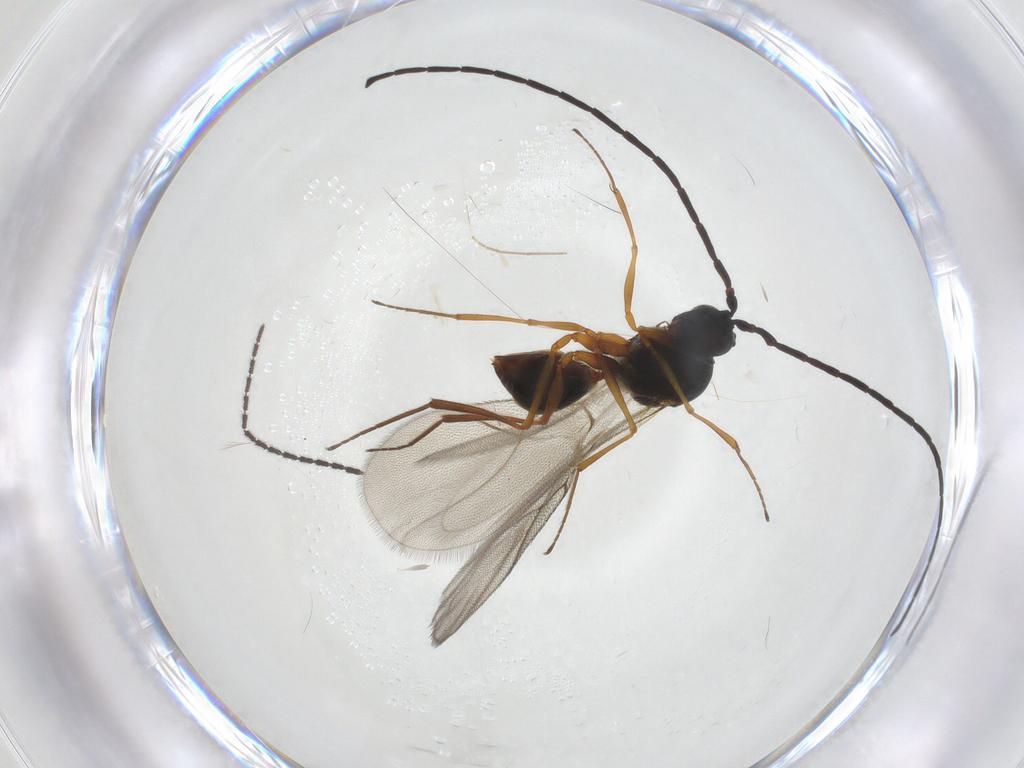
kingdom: Animalia
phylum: Arthropoda
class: Insecta
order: Hymenoptera
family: Figitidae
